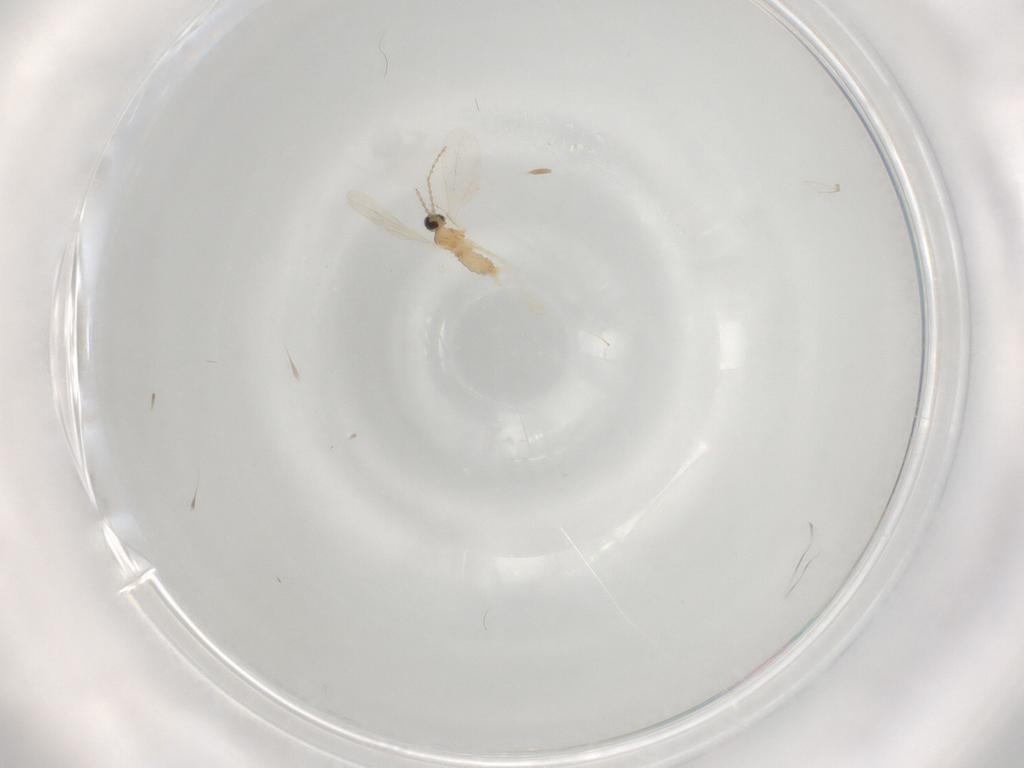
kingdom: Animalia
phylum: Arthropoda
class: Insecta
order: Diptera
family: Cecidomyiidae
